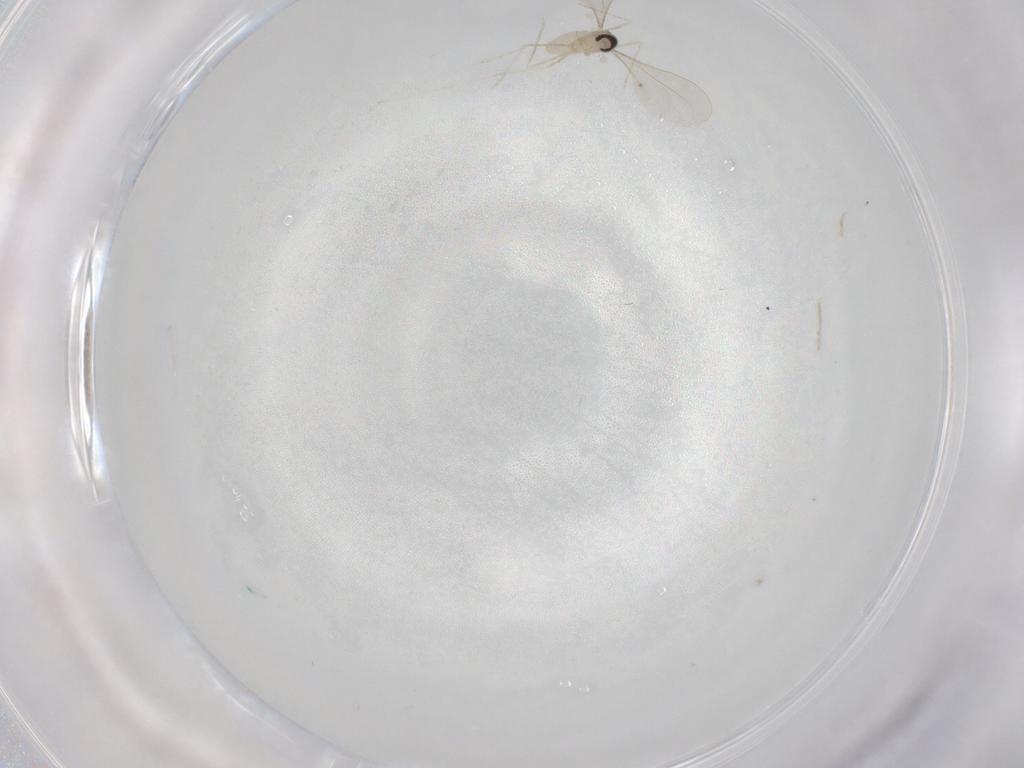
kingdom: Animalia
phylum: Arthropoda
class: Insecta
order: Diptera
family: Cecidomyiidae
